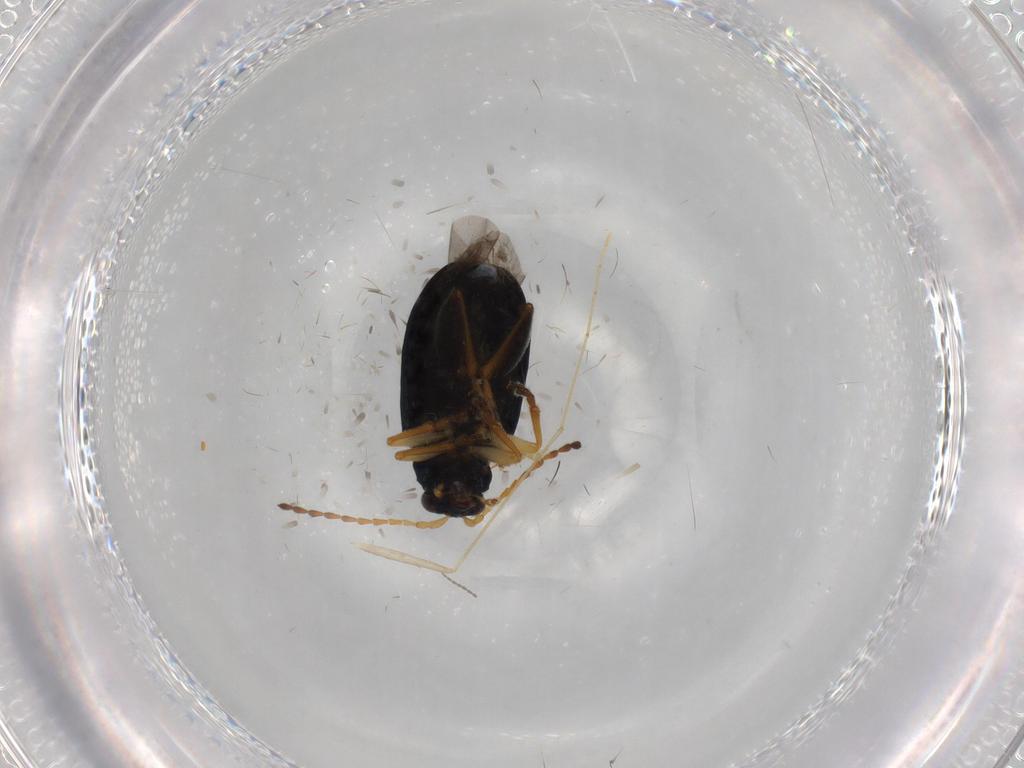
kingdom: Animalia
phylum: Arthropoda
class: Insecta
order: Coleoptera
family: Chrysomelidae
